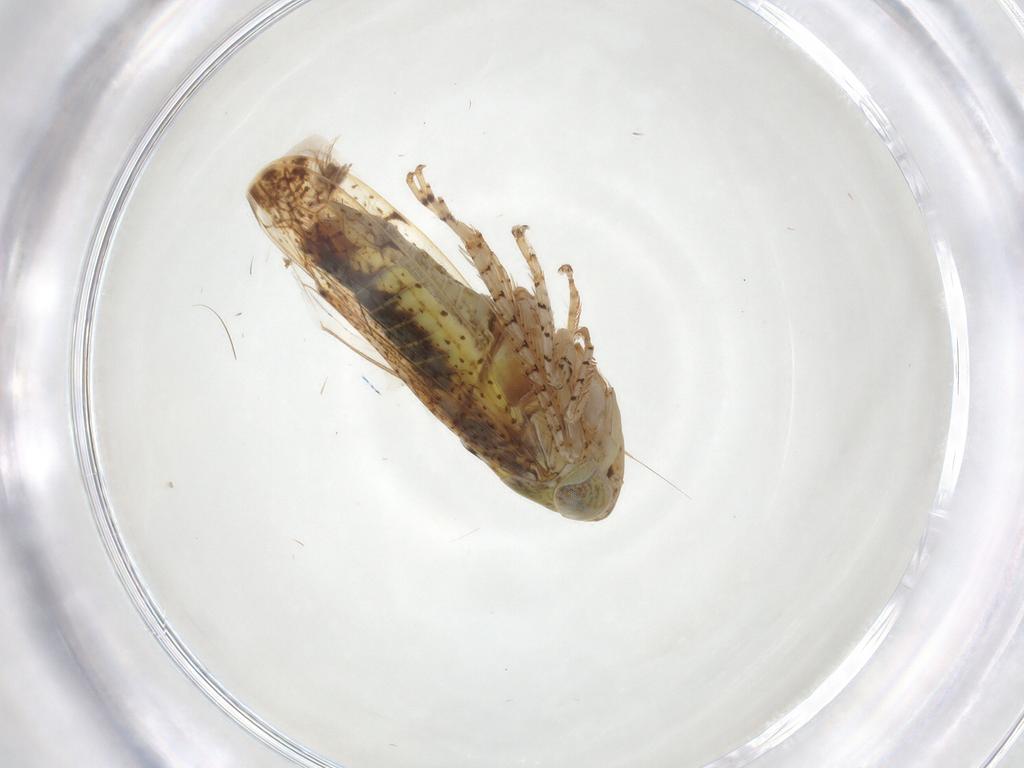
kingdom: Animalia
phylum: Arthropoda
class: Insecta
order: Hemiptera
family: Cicadellidae
